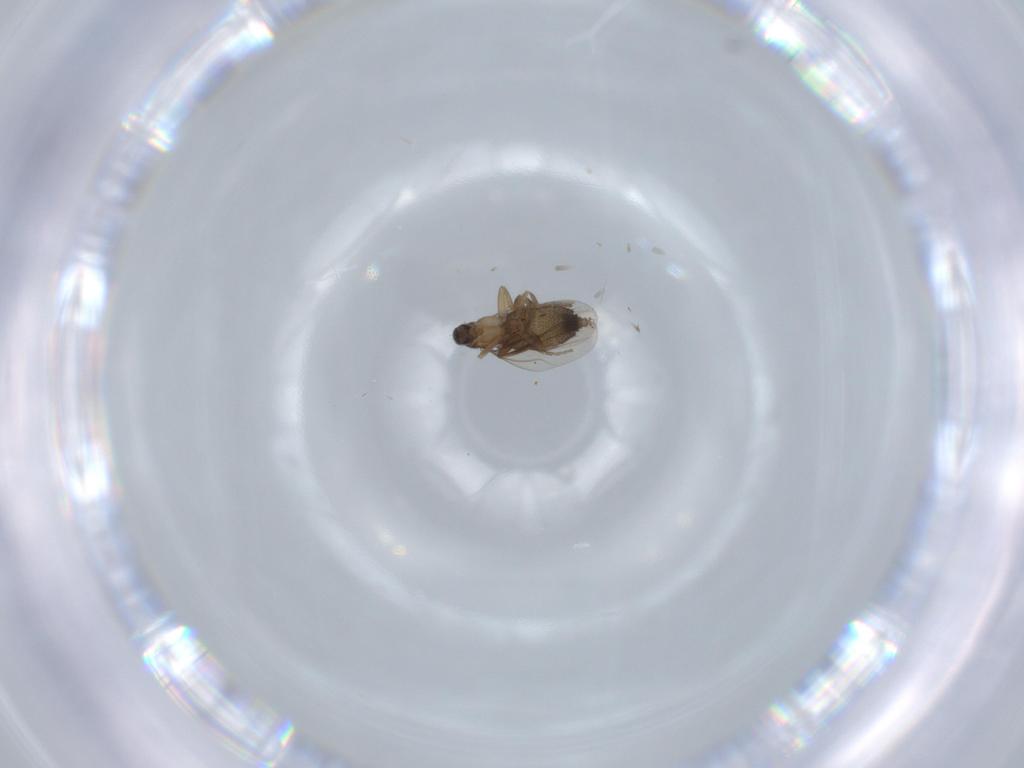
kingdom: Animalia
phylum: Arthropoda
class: Insecta
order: Diptera
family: Phoridae
